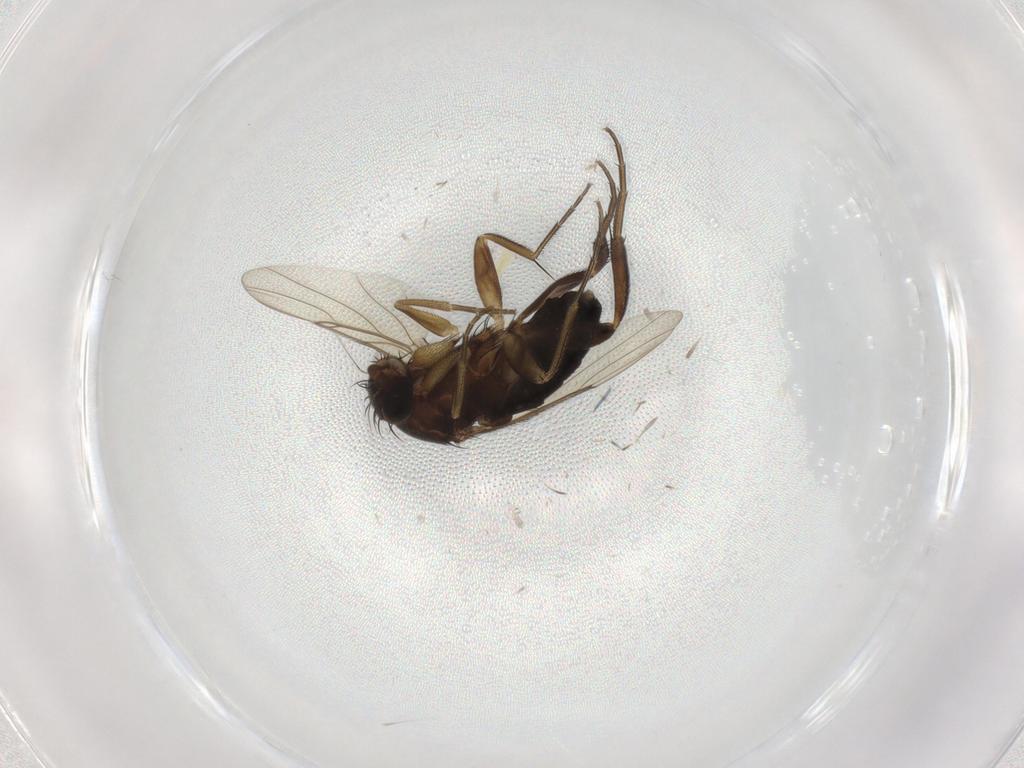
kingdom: Animalia
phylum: Arthropoda
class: Insecta
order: Diptera
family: Phoridae
